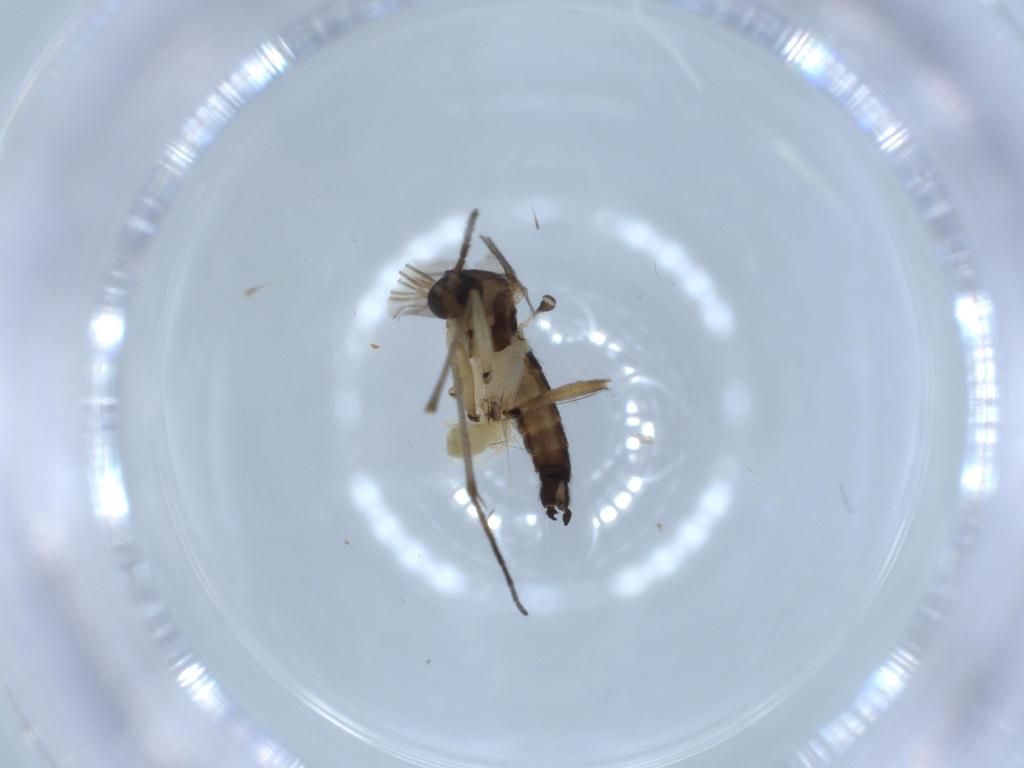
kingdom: Animalia
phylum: Arthropoda
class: Insecta
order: Diptera
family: Sciaridae
